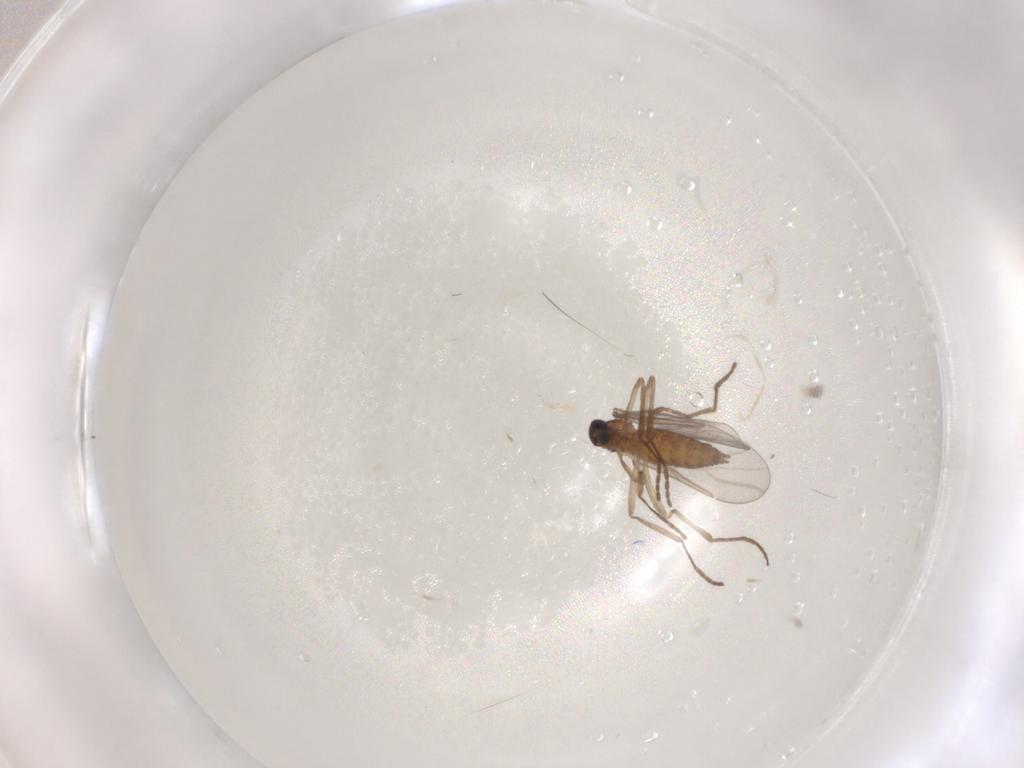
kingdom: Animalia
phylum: Arthropoda
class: Insecta
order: Diptera
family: Cecidomyiidae
